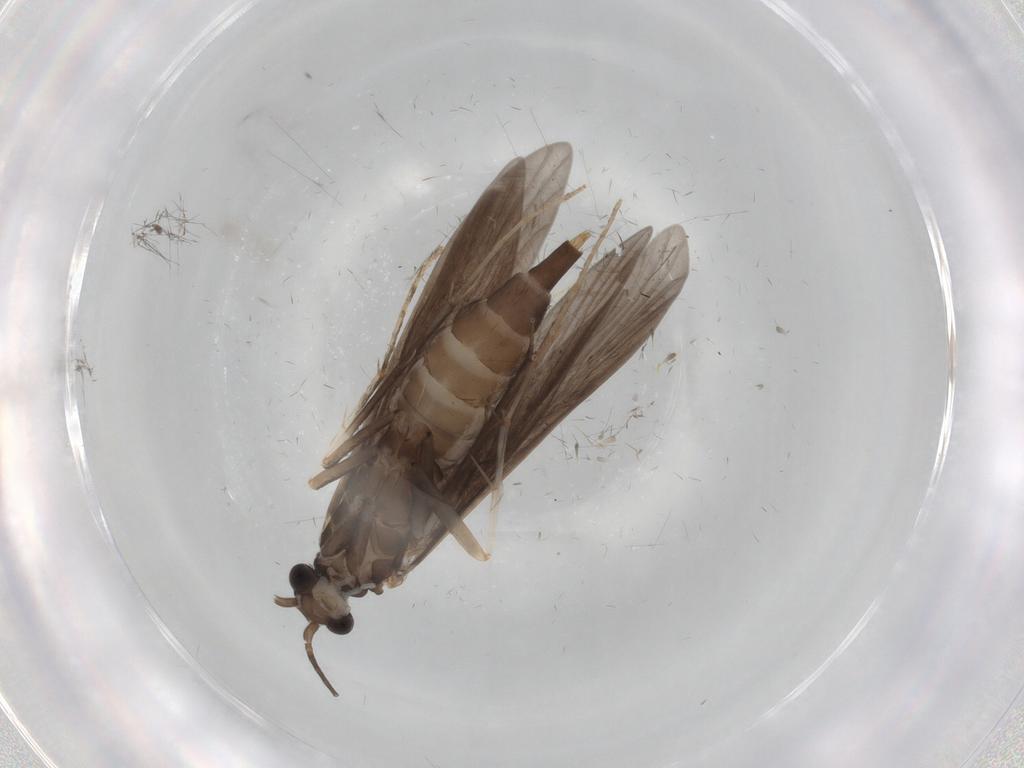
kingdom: Animalia
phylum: Arthropoda
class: Insecta
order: Trichoptera
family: Xiphocentronidae
